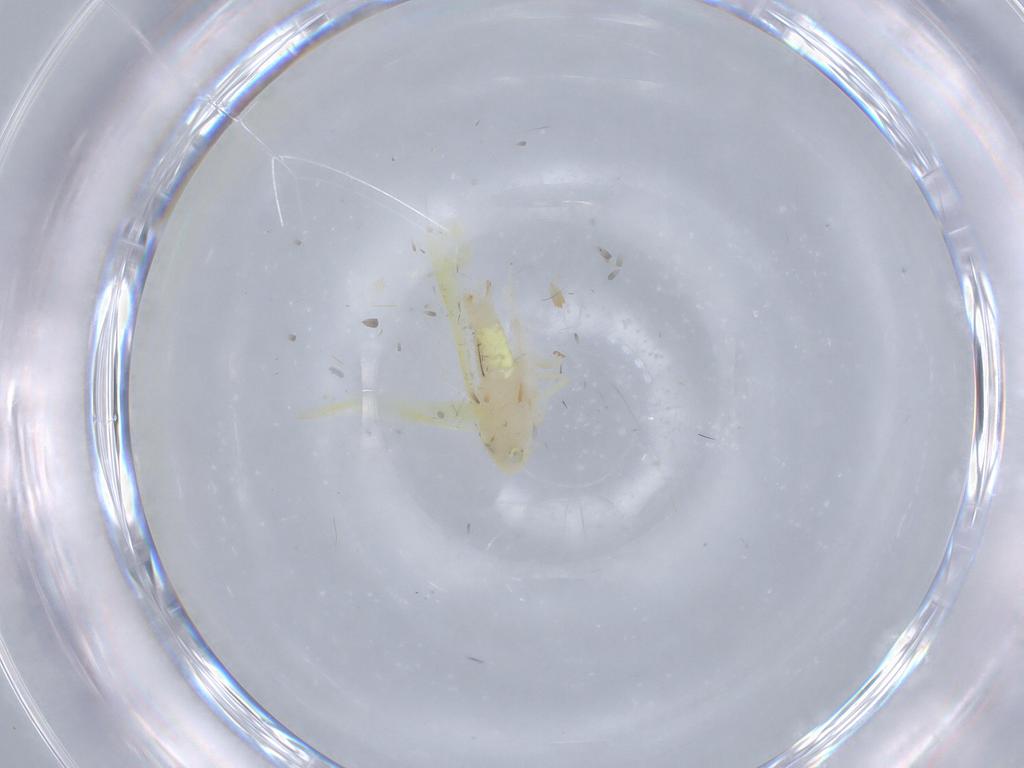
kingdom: Animalia
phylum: Arthropoda
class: Insecta
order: Hemiptera
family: Cicadellidae
